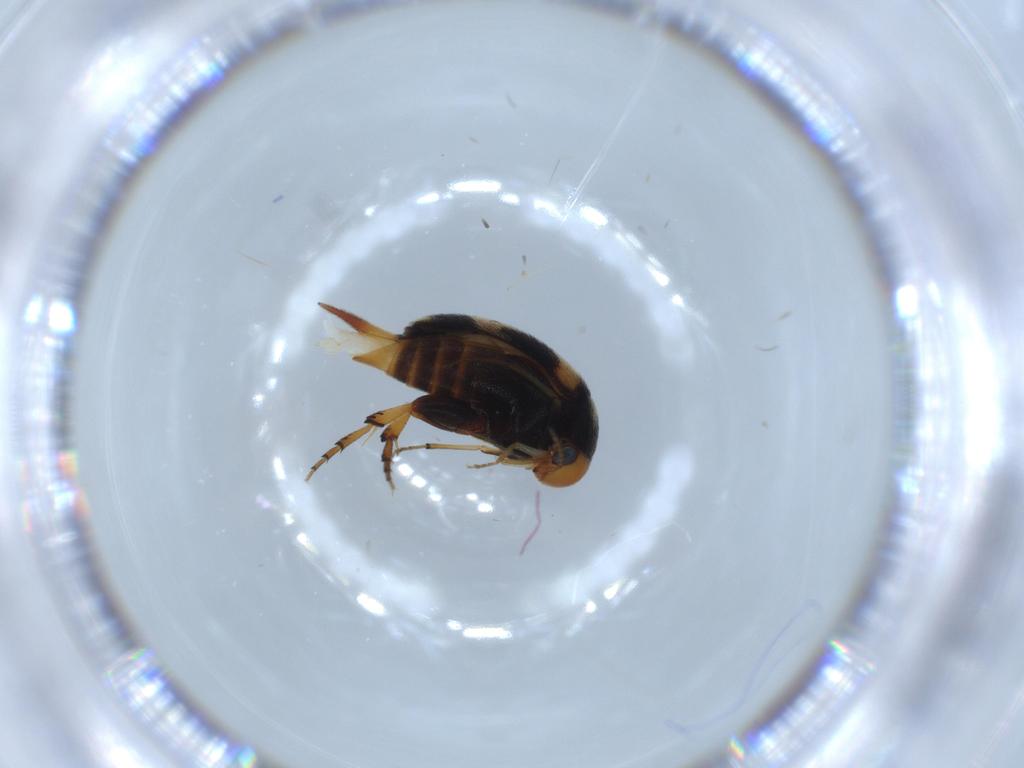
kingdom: Animalia
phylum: Arthropoda
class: Insecta
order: Coleoptera
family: Mordellidae
